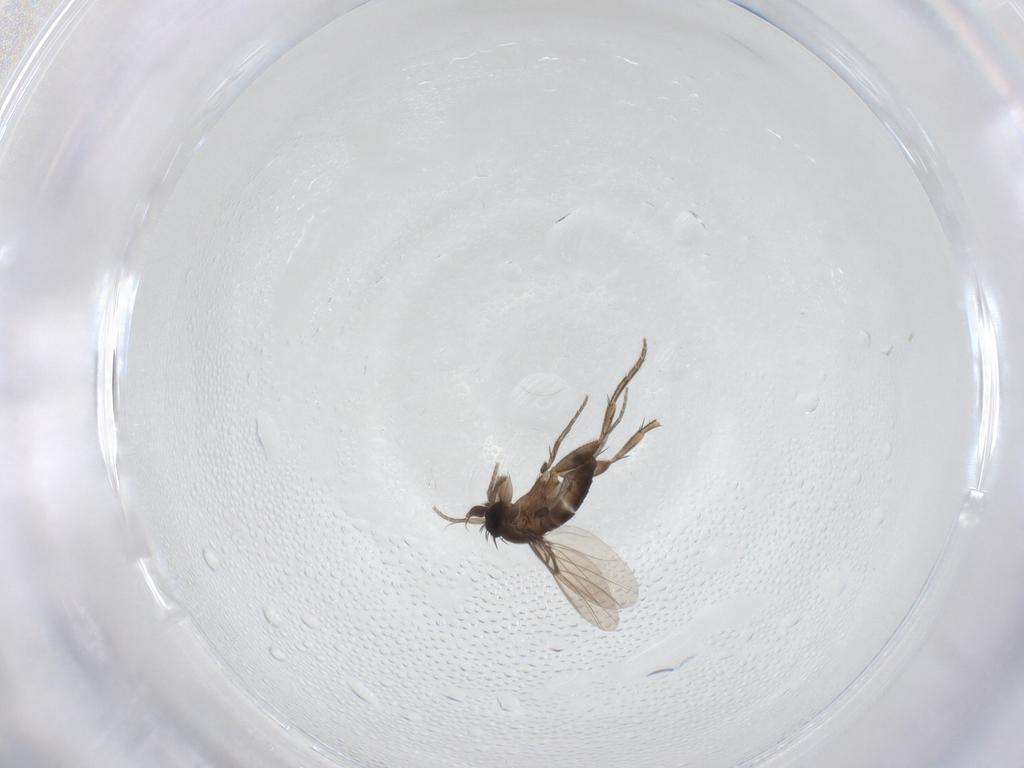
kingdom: Animalia
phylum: Arthropoda
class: Insecta
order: Diptera
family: Phoridae
